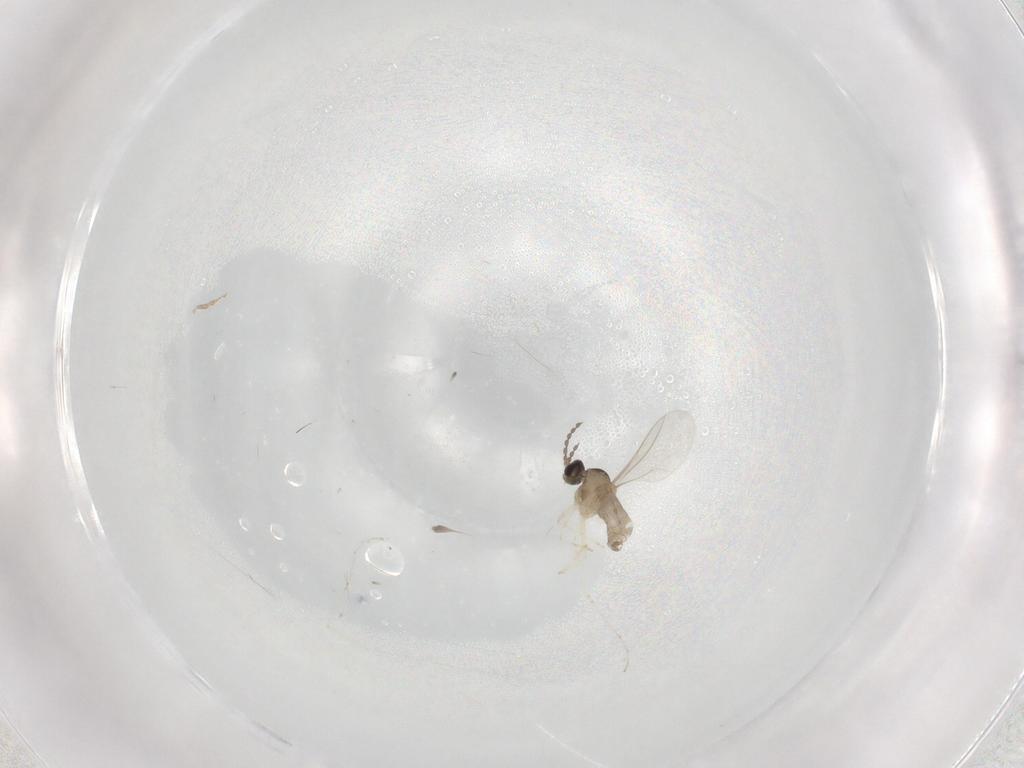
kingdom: Animalia
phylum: Arthropoda
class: Insecta
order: Diptera
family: Cecidomyiidae
